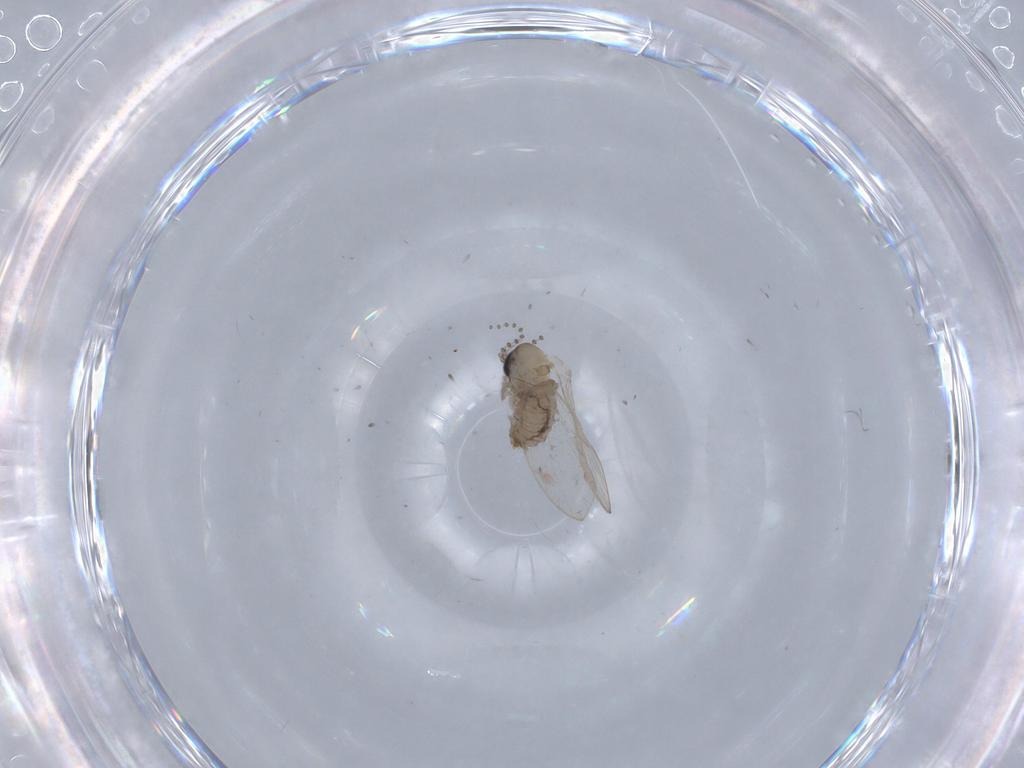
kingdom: Animalia
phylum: Arthropoda
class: Insecta
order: Diptera
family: Psychodidae
